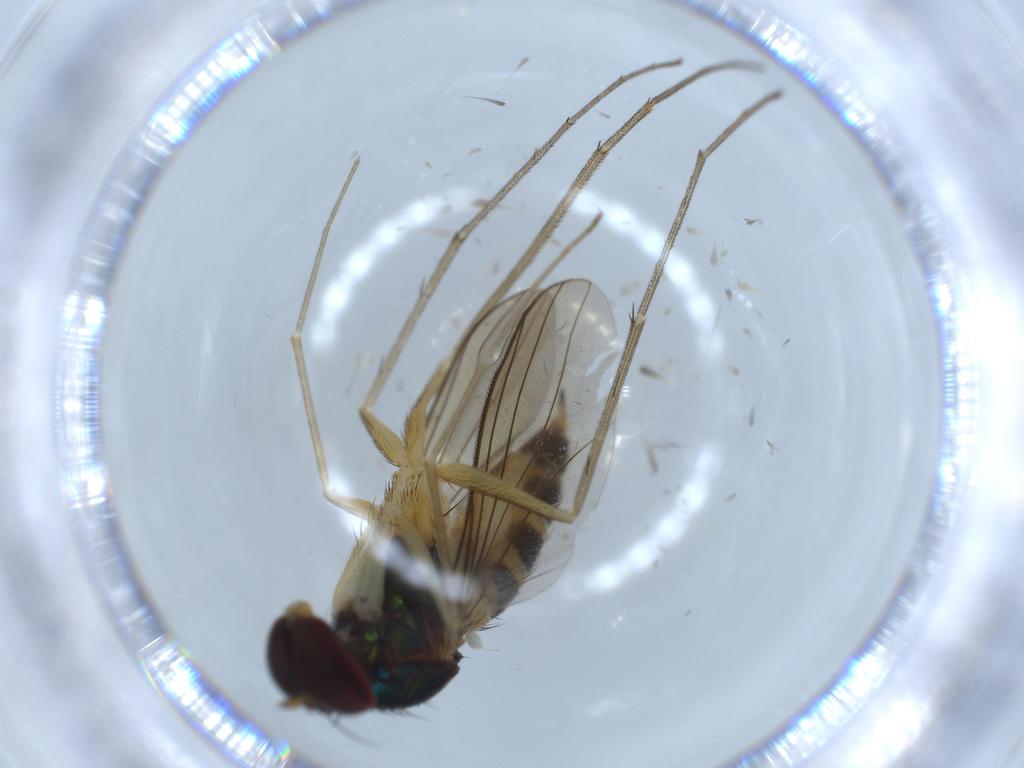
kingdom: Animalia
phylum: Arthropoda
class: Insecta
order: Diptera
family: Dolichopodidae
